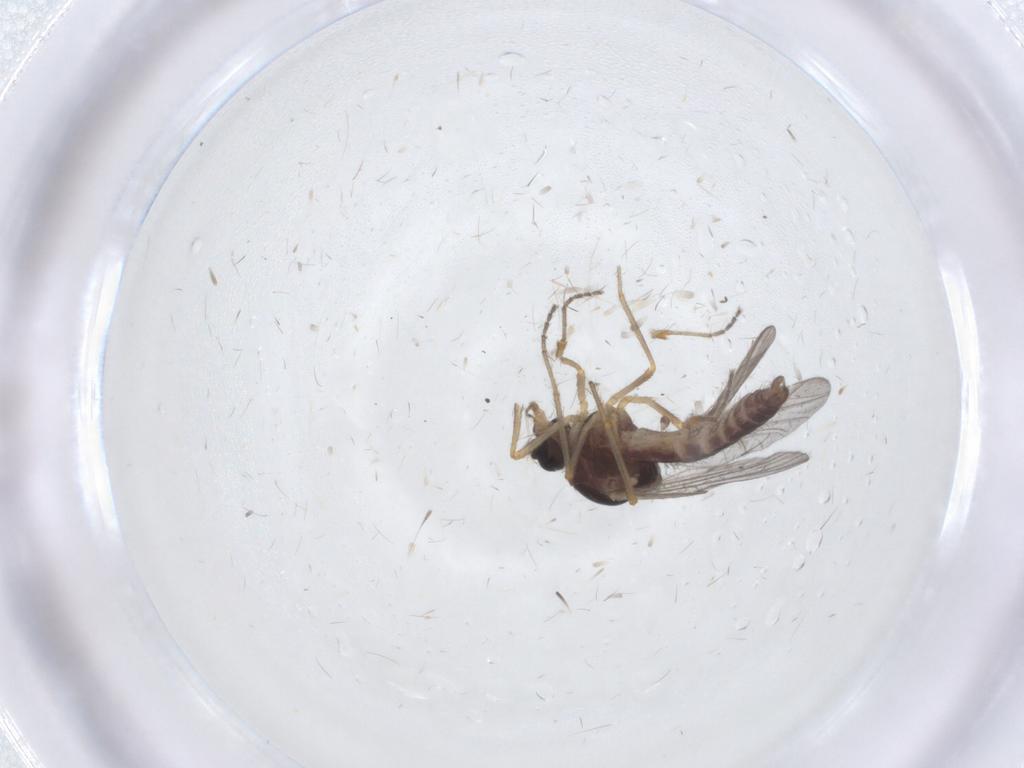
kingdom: Animalia
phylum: Arthropoda
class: Insecta
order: Diptera
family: Ceratopogonidae
